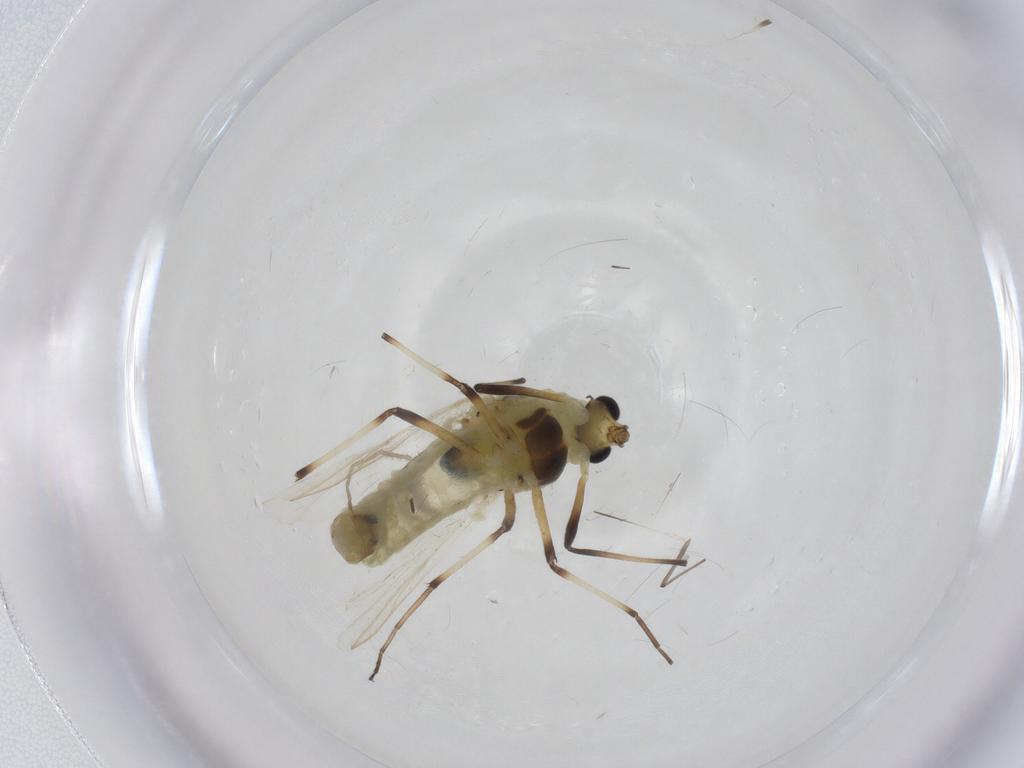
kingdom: Animalia
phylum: Arthropoda
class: Insecta
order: Diptera
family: Chironomidae
